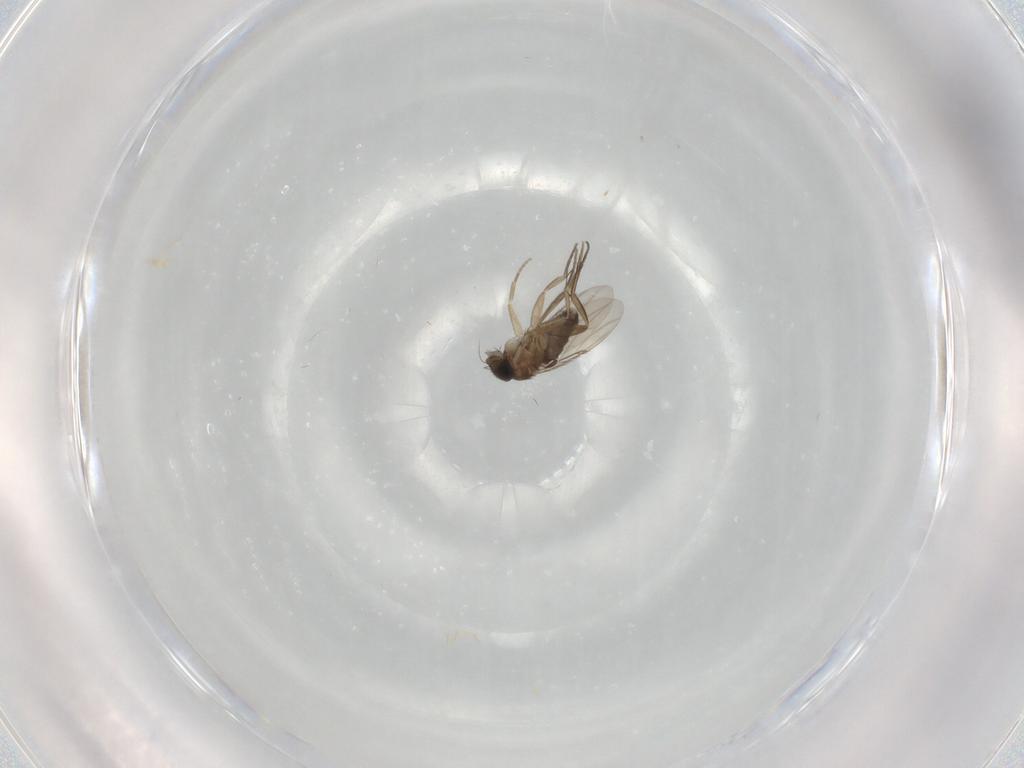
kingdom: Animalia
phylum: Arthropoda
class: Insecta
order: Diptera
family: Phoridae
